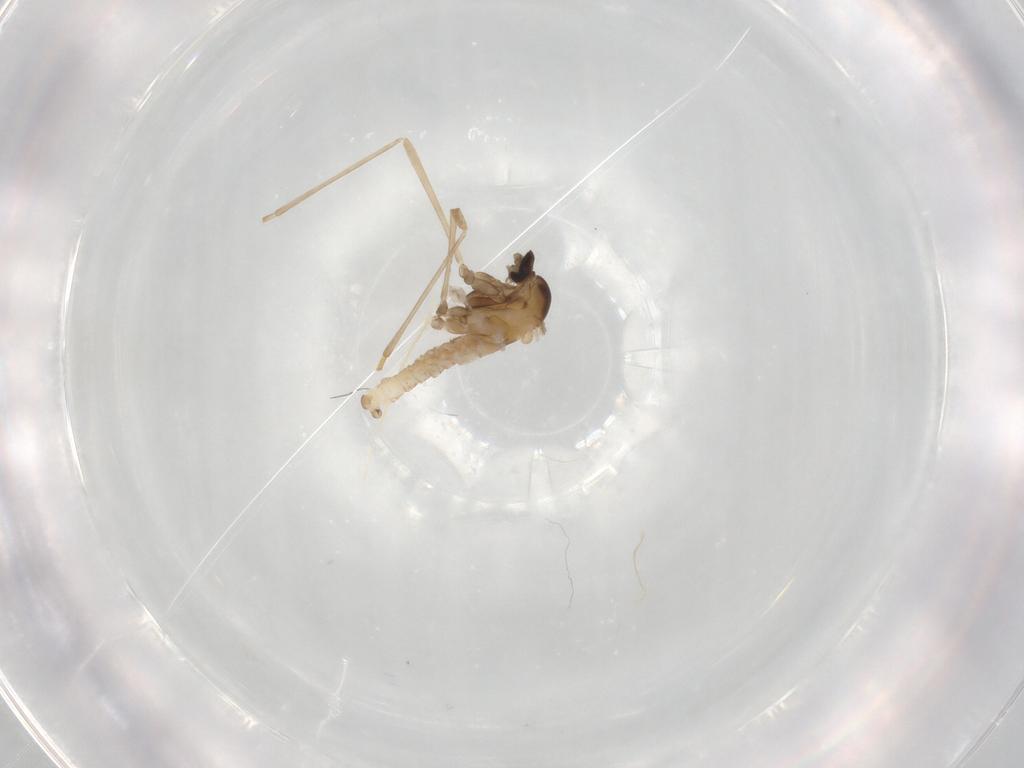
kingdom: Animalia
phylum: Arthropoda
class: Insecta
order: Diptera
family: Cecidomyiidae
